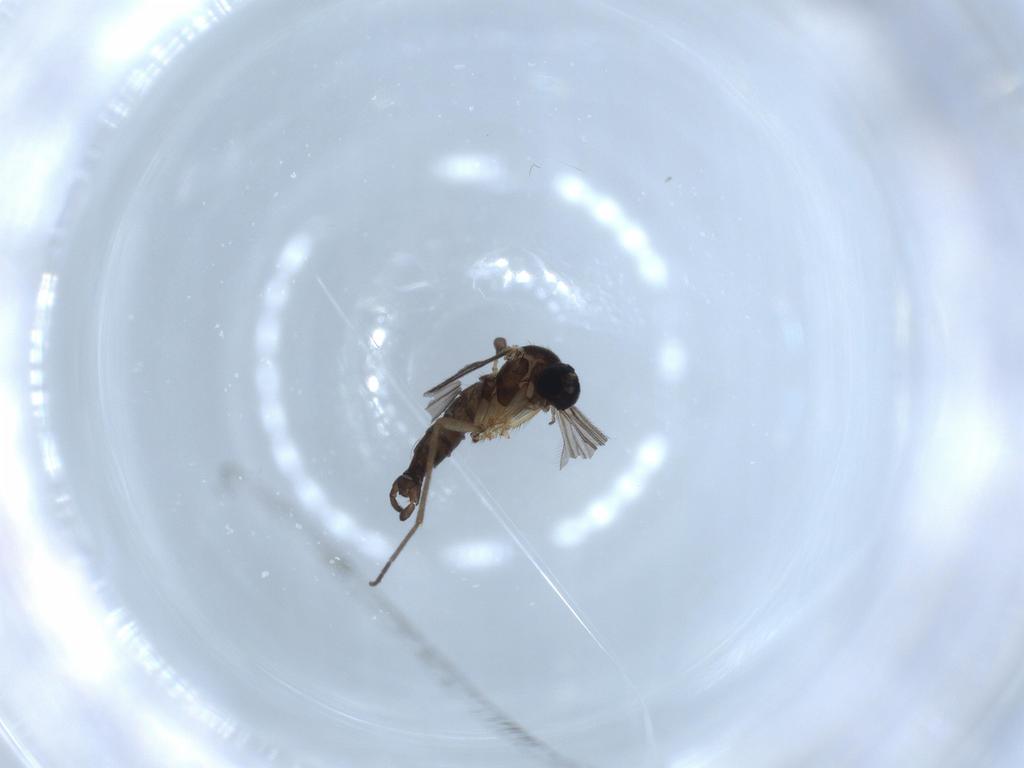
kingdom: Animalia
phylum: Arthropoda
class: Insecta
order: Diptera
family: Sciaridae
